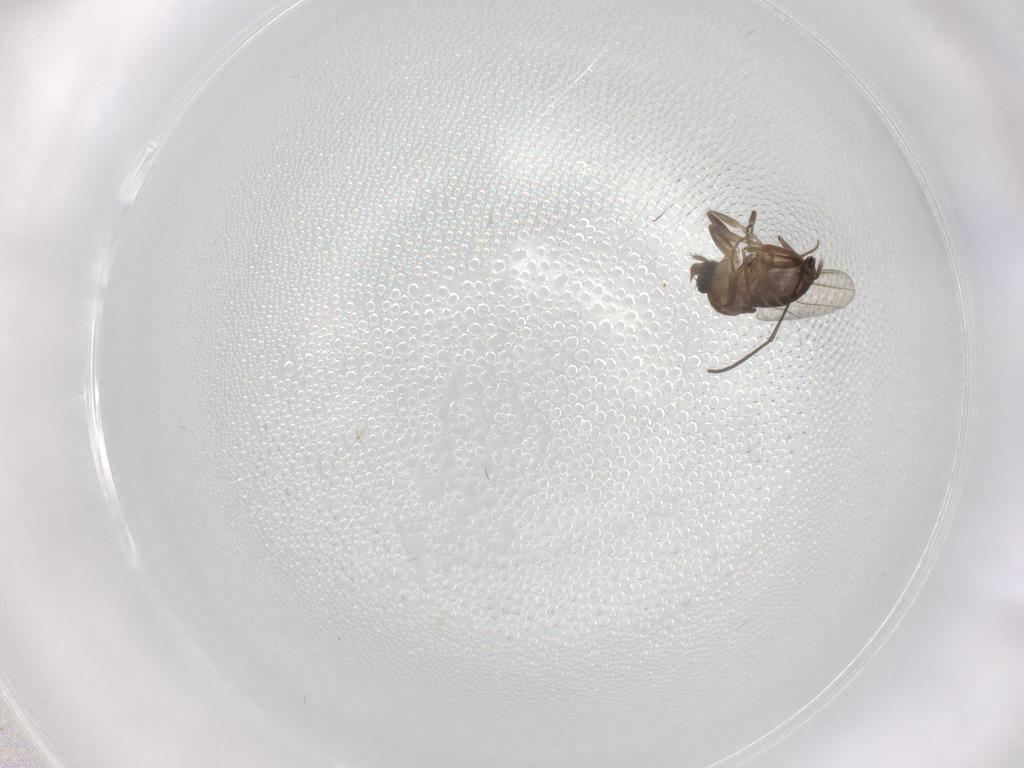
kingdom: Animalia
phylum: Arthropoda
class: Insecta
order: Diptera
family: Phoridae
